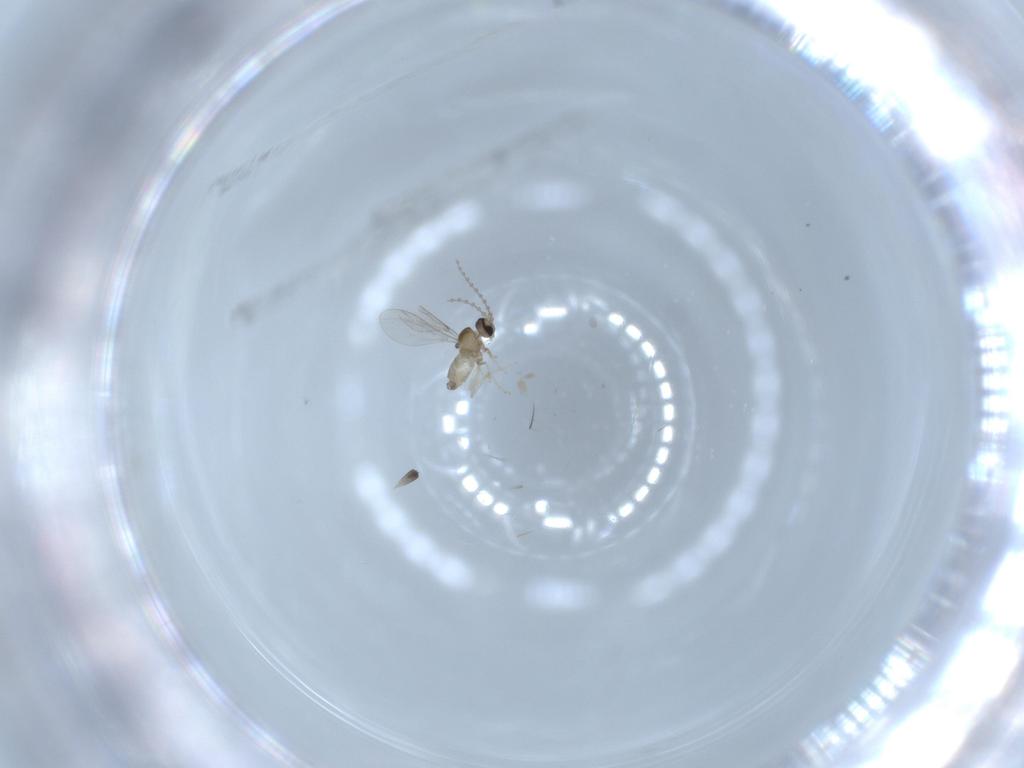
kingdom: Animalia
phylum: Arthropoda
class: Insecta
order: Diptera
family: Cecidomyiidae
